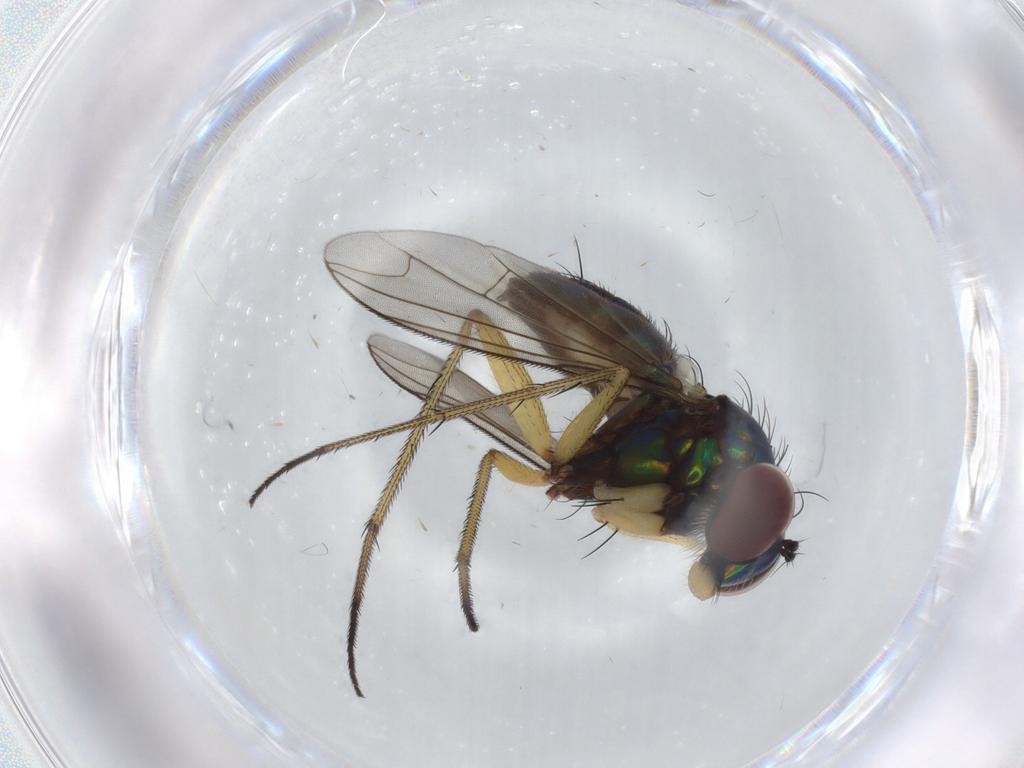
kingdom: Animalia
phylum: Arthropoda
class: Insecta
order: Diptera
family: Dolichopodidae
